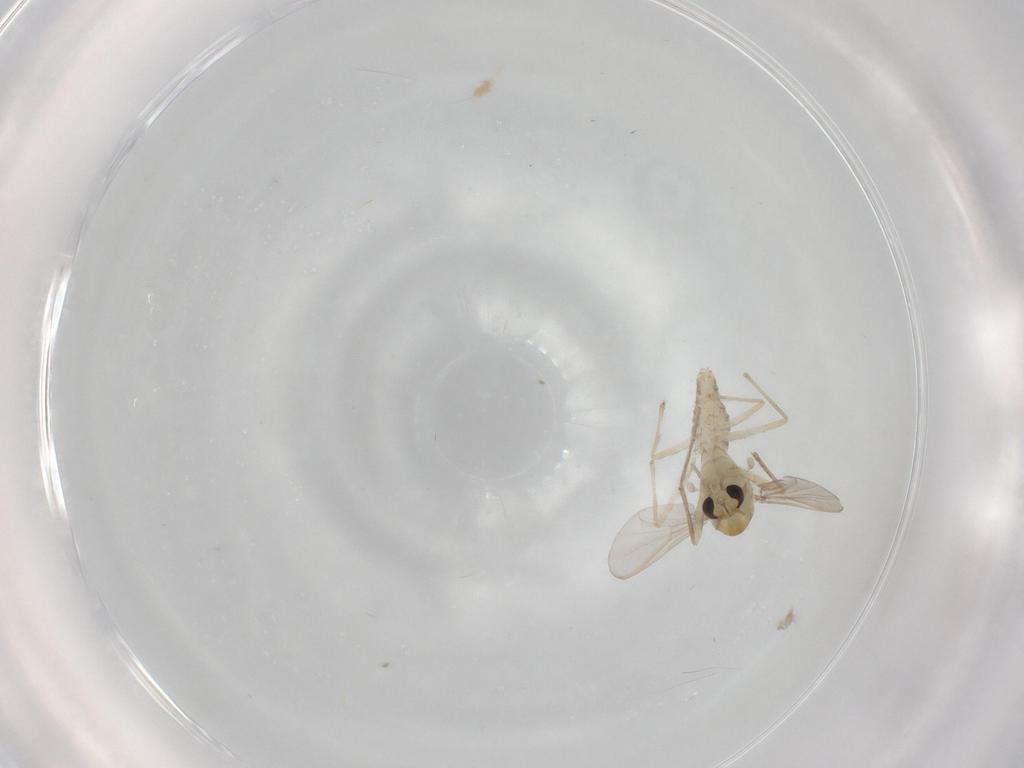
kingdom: Animalia
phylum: Arthropoda
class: Insecta
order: Diptera
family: Chironomidae
